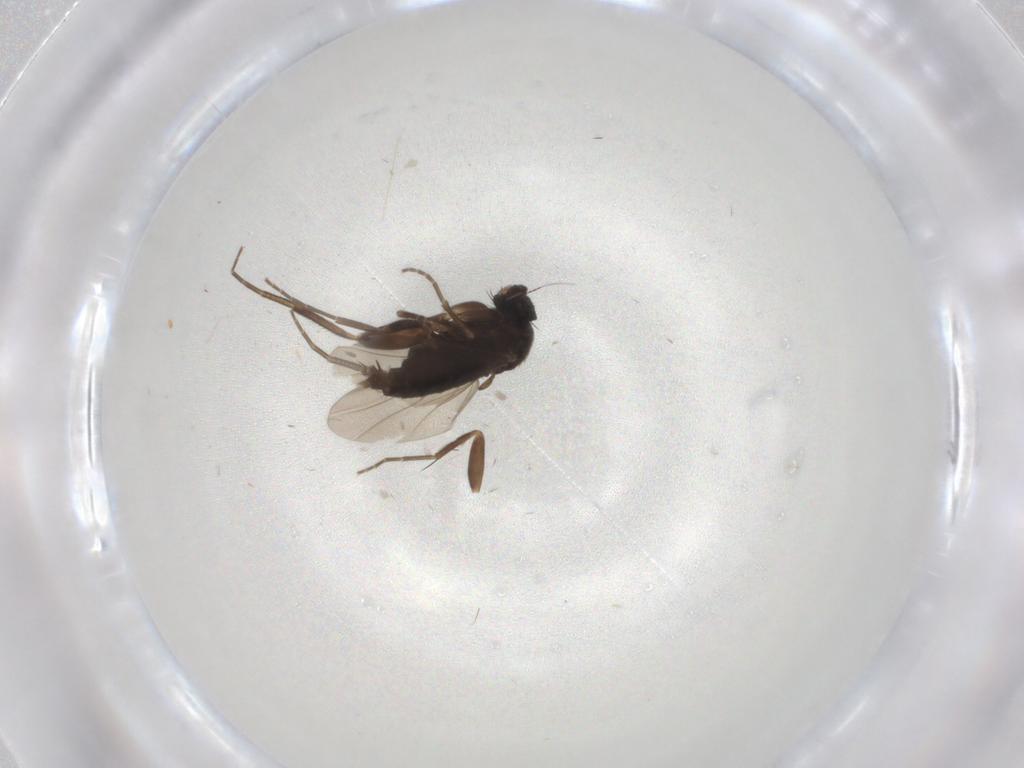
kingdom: Animalia
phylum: Arthropoda
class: Insecta
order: Diptera
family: Phoridae
